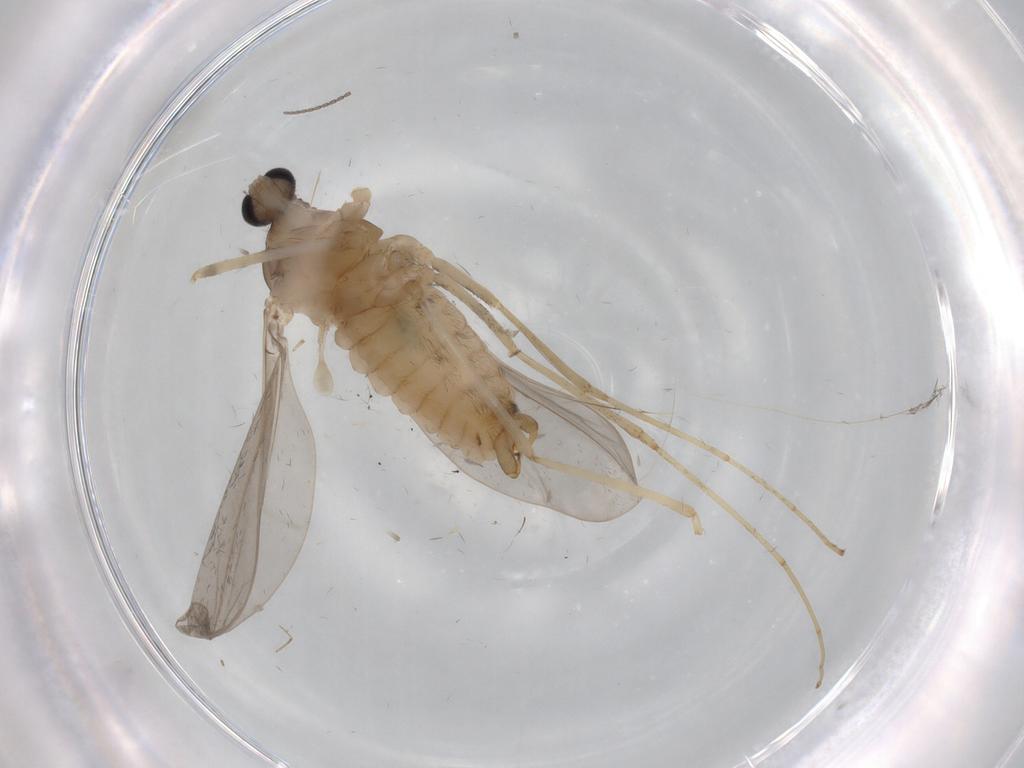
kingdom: Animalia
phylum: Arthropoda
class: Insecta
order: Diptera
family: Cecidomyiidae
